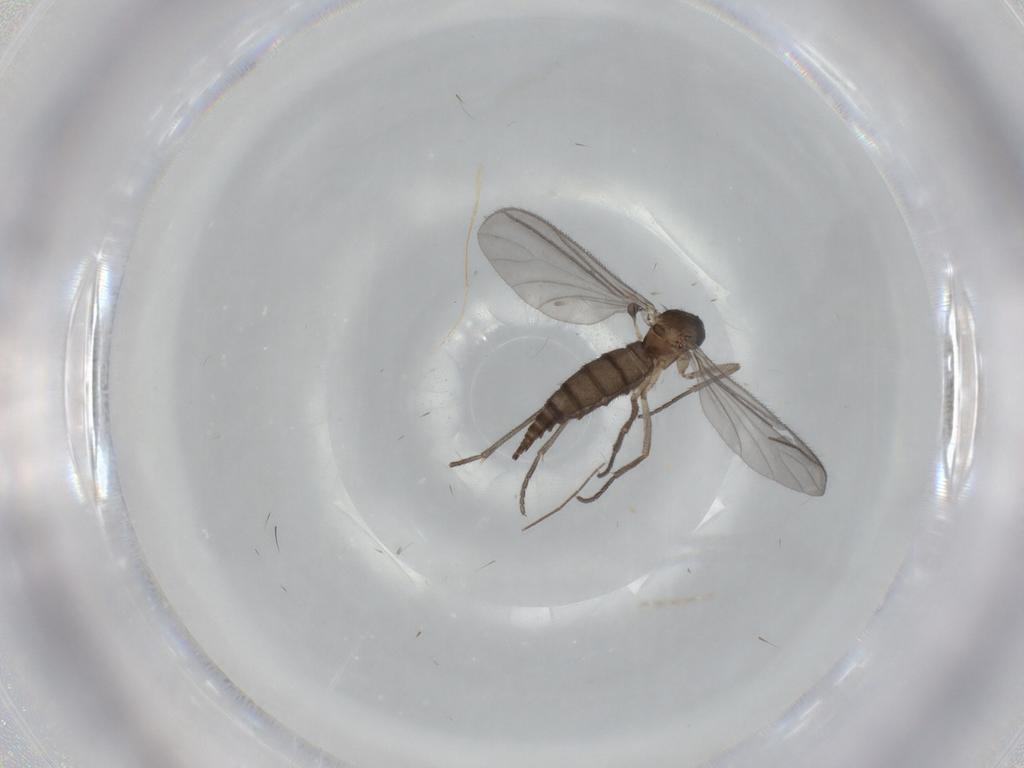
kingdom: Animalia
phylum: Arthropoda
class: Insecta
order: Diptera
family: Sciaridae
